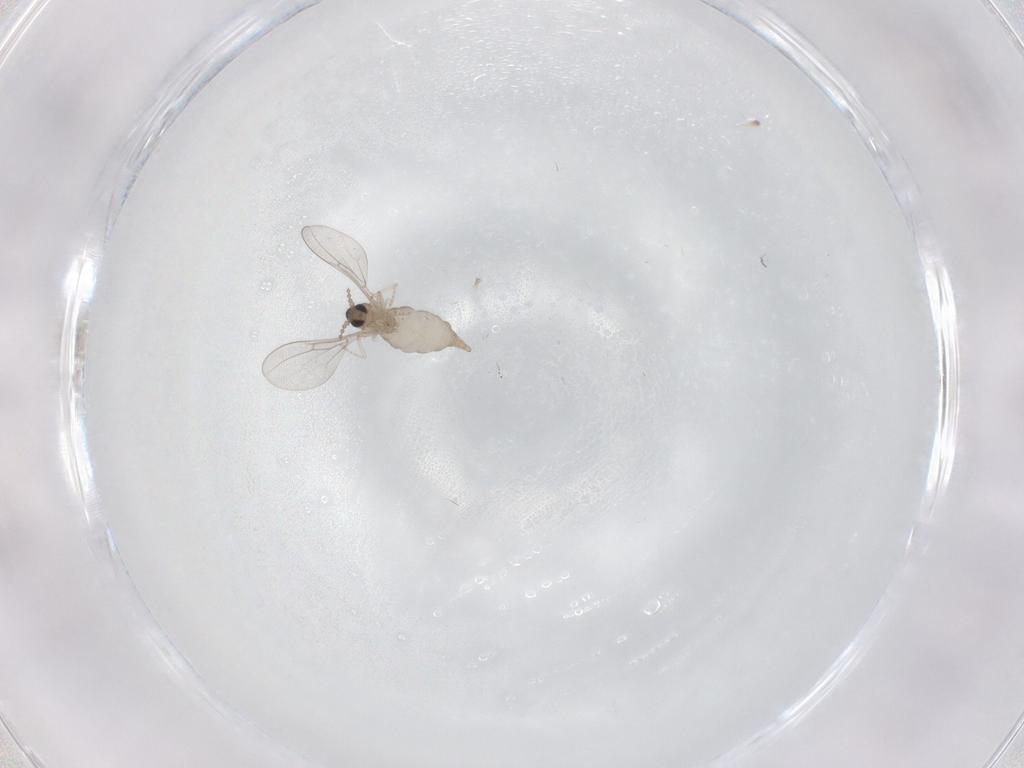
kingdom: Animalia
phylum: Arthropoda
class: Insecta
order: Diptera
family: Cecidomyiidae
